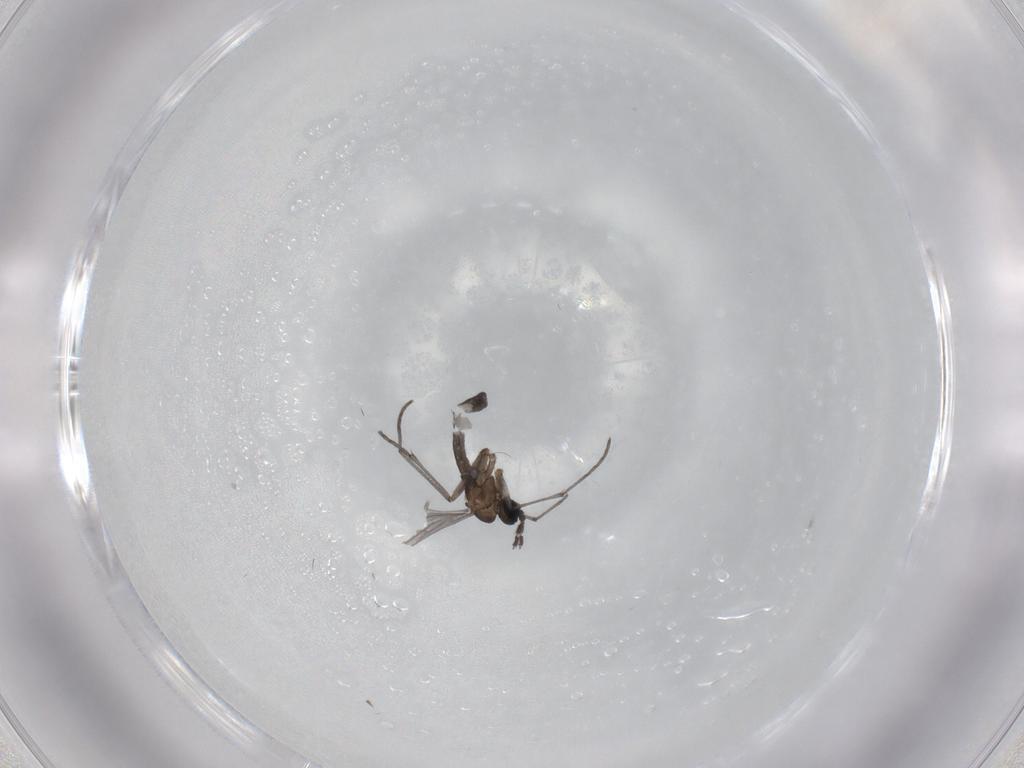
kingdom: Animalia
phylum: Arthropoda
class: Insecta
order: Diptera
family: Sciaridae
